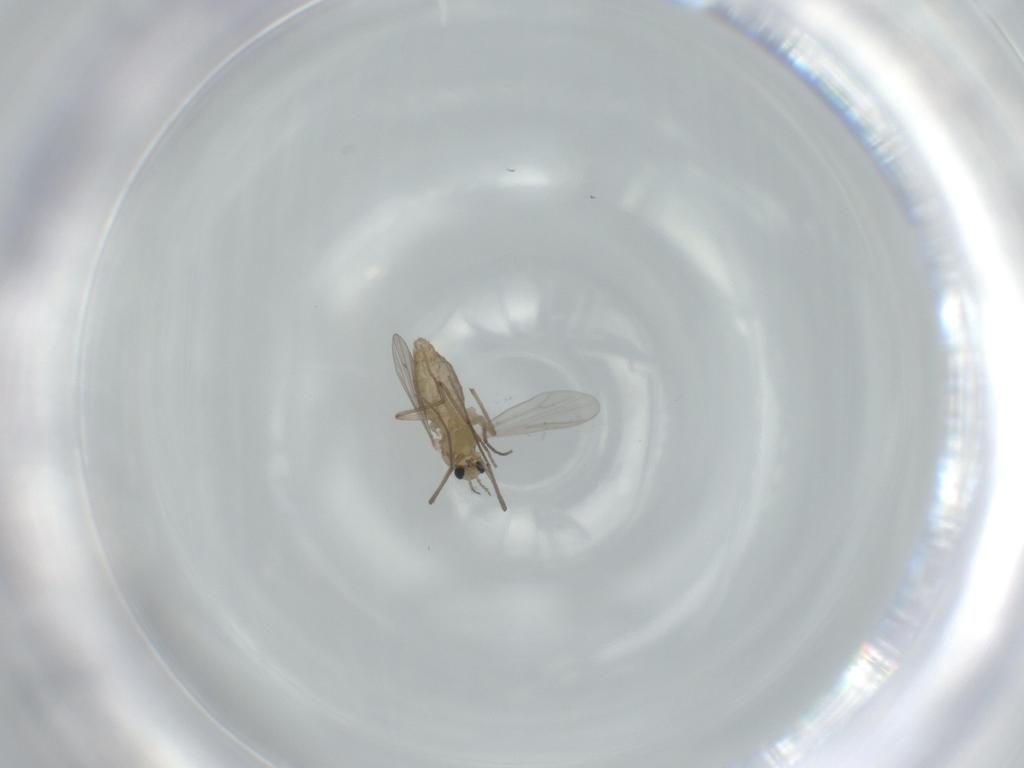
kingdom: Animalia
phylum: Arthropoda
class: Insecta
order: Diptera
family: Chironomidae
